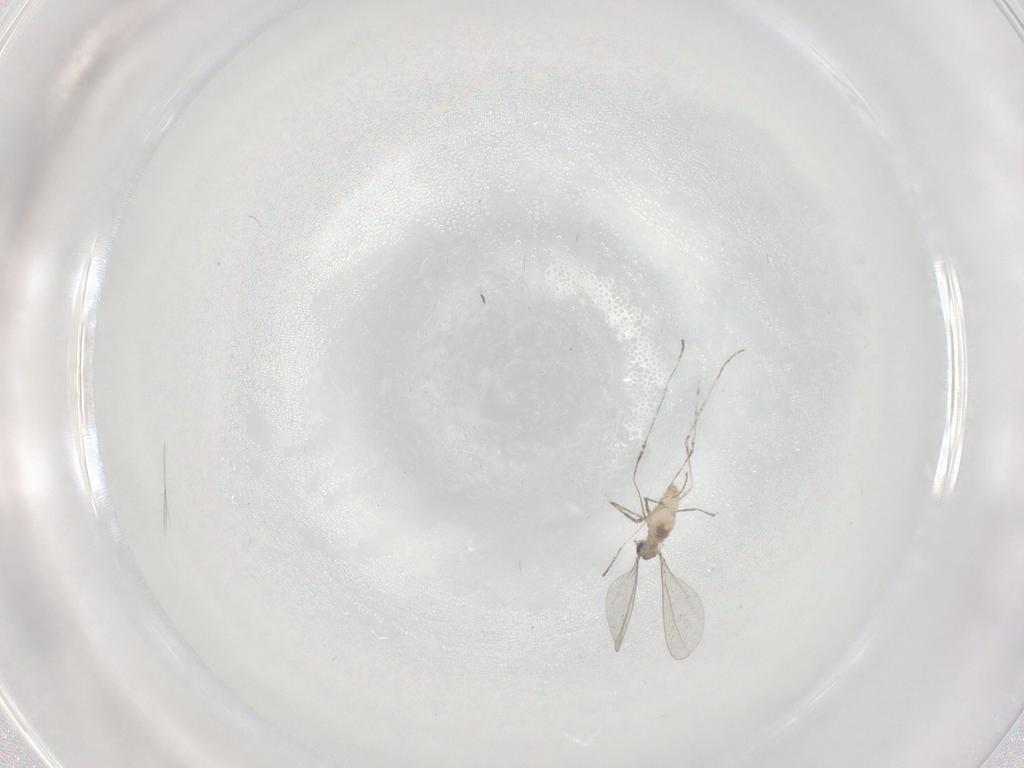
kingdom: Animalia
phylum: Arthropoda
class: Insecta
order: Diptera
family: Cecidomyiidae
